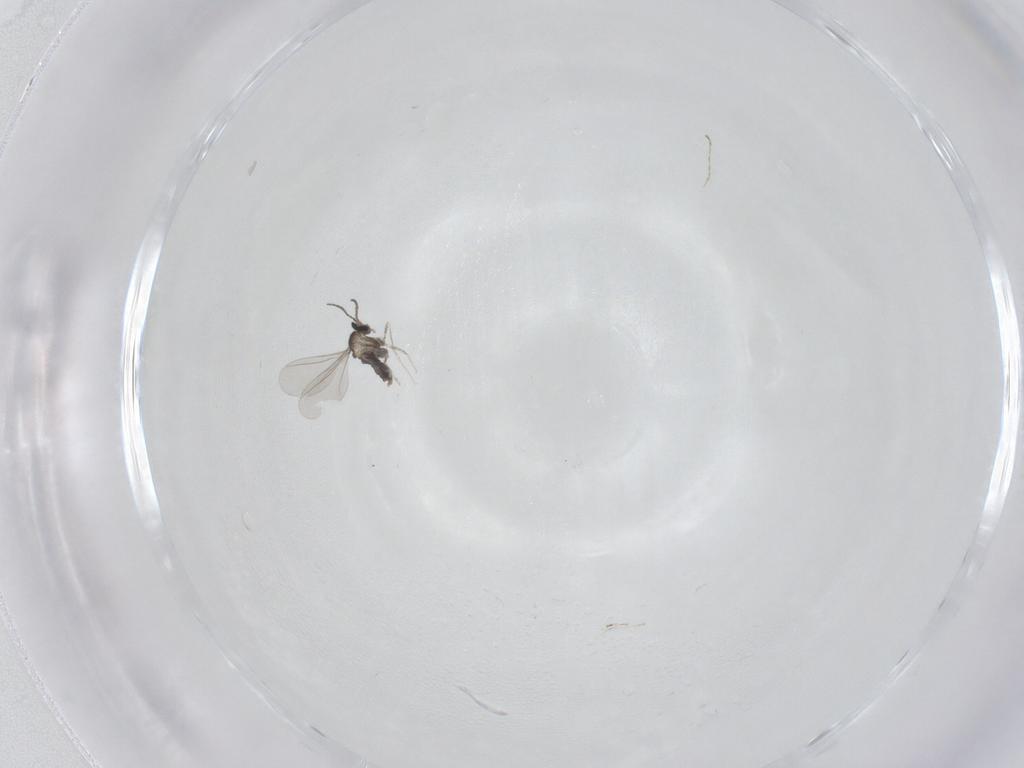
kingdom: Animalia
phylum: Arthropoda
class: Insecta
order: Diptera
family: Cecidomyiidae
